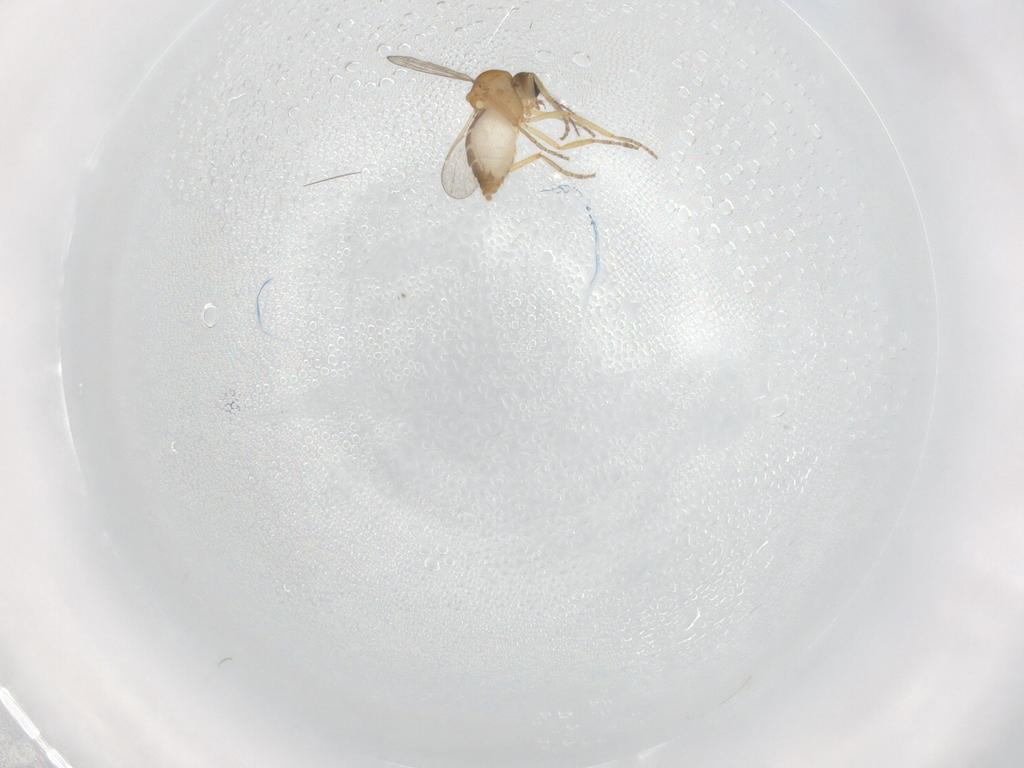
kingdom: Animalia
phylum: Arthropoda
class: Insecta
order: Diptera
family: Ceratopogonidae
